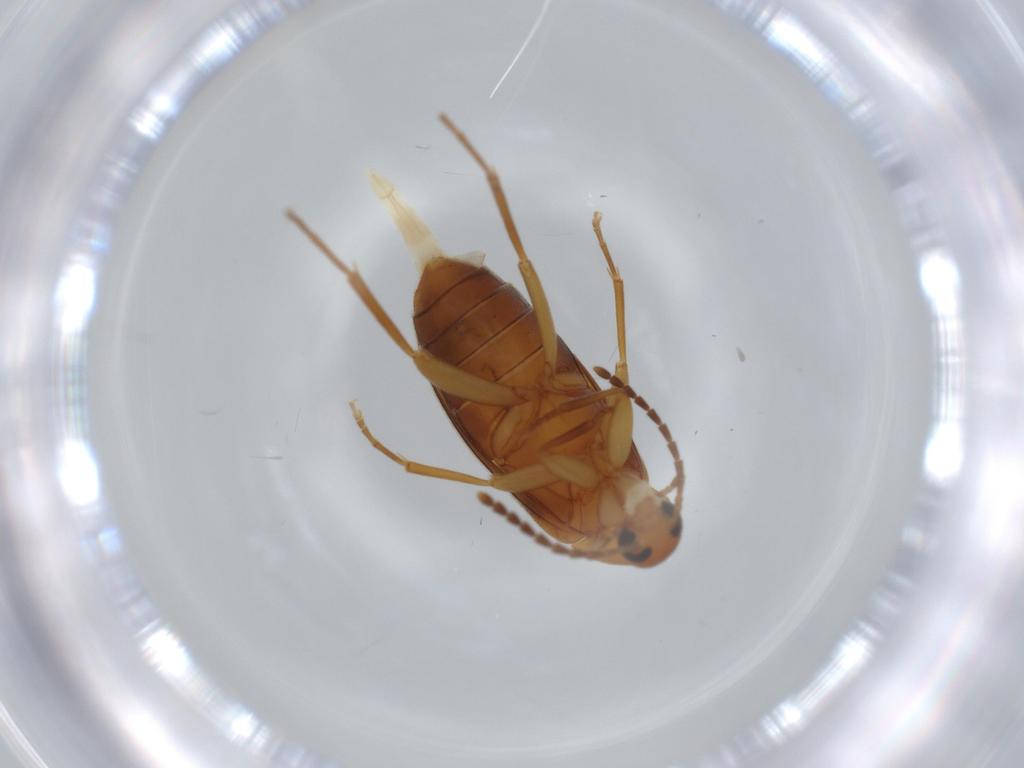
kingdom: Animalia
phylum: Arthropoda
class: Insecta
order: Coleoptera
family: Scraptiidae
